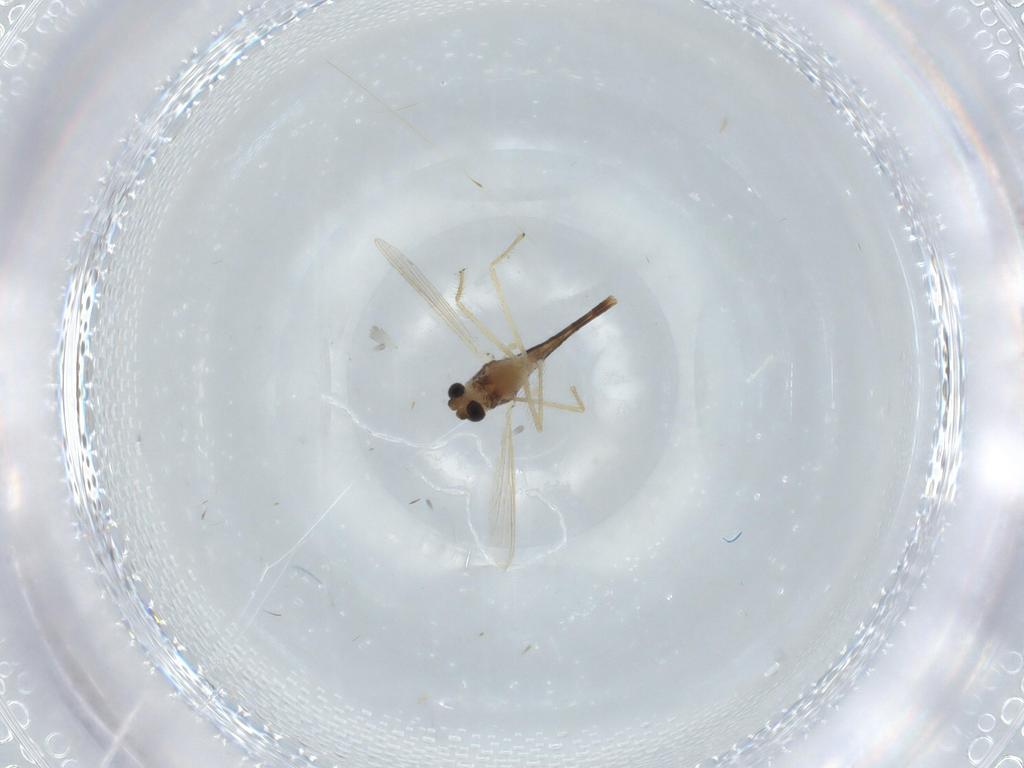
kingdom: Animalia
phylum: Arthropoda
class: Insecta
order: Diptera
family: Chironomidae
